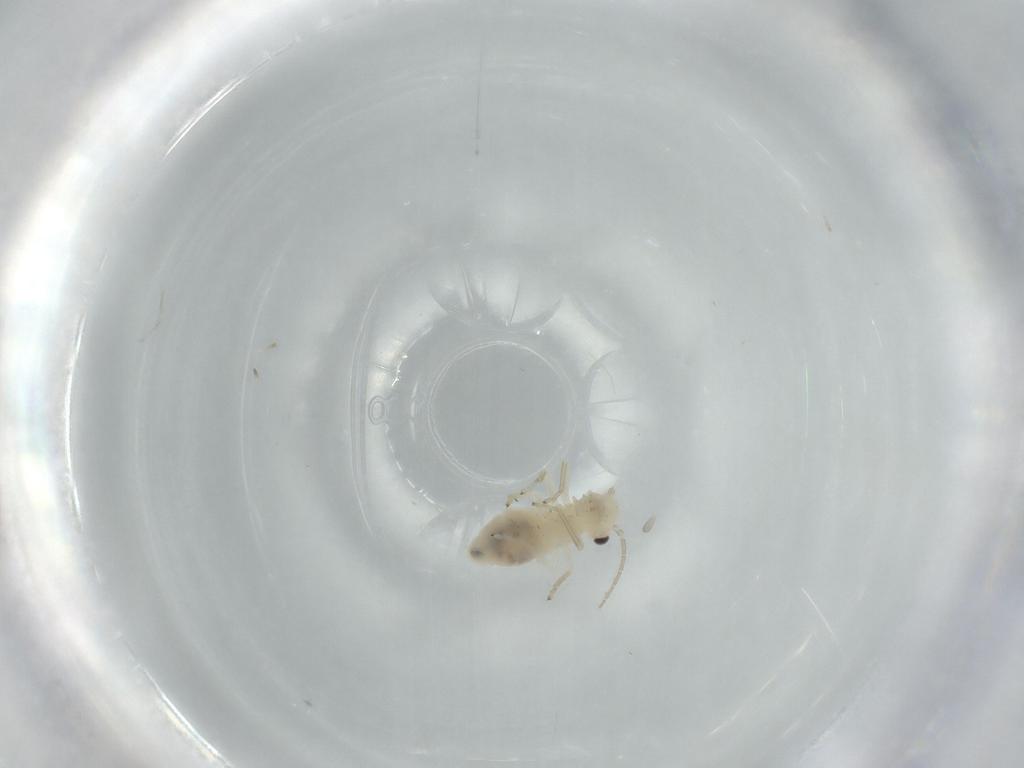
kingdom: Animalia
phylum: Arthropoda
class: Insecta
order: Psocodea
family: Caeciliusidae
